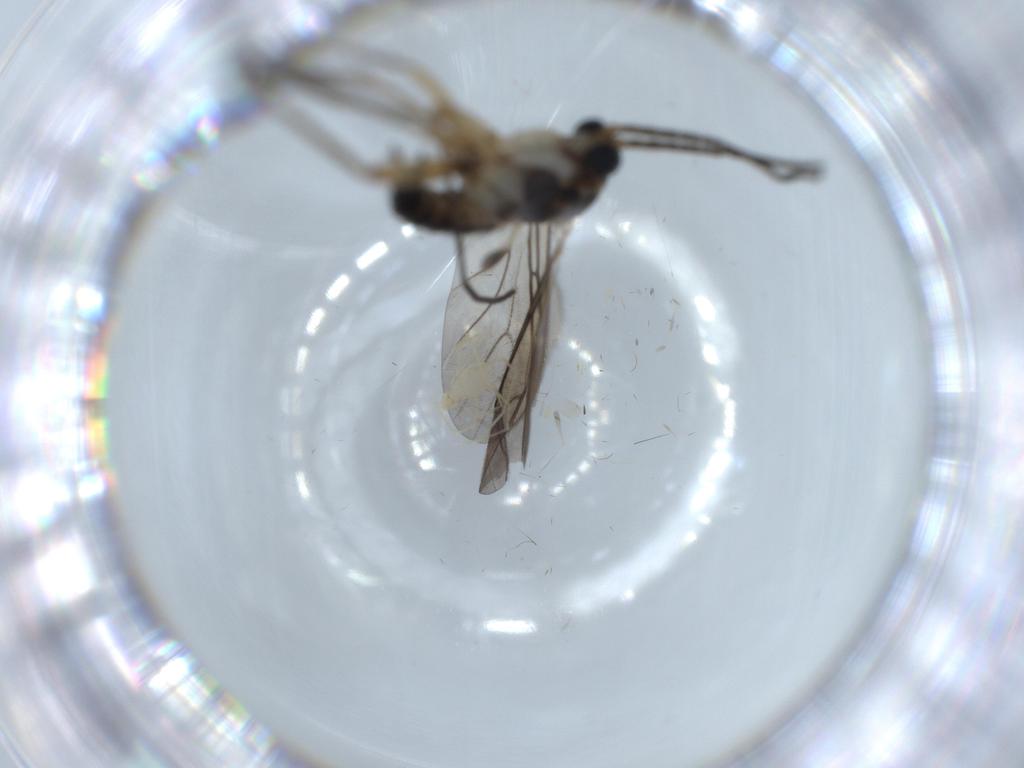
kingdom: Animalia
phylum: Arthropoda
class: Insecta
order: Diptera
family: Sciaridae
